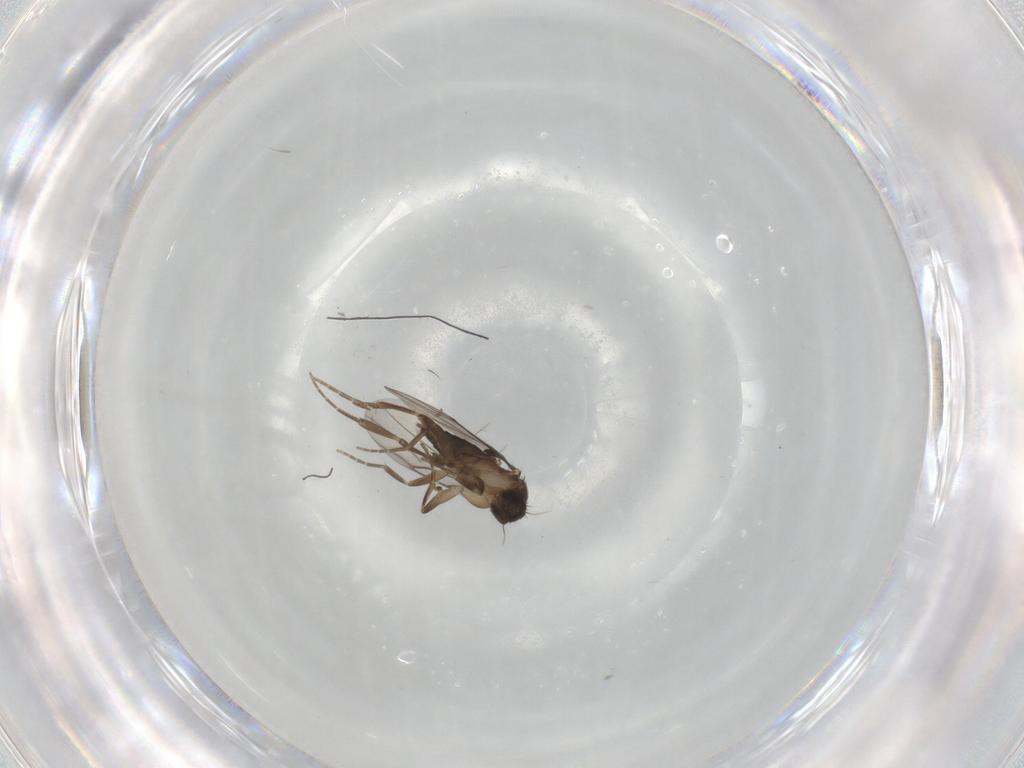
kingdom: Animalia
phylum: Arthropoda
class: Insecta
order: Diptera
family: Phoridae
